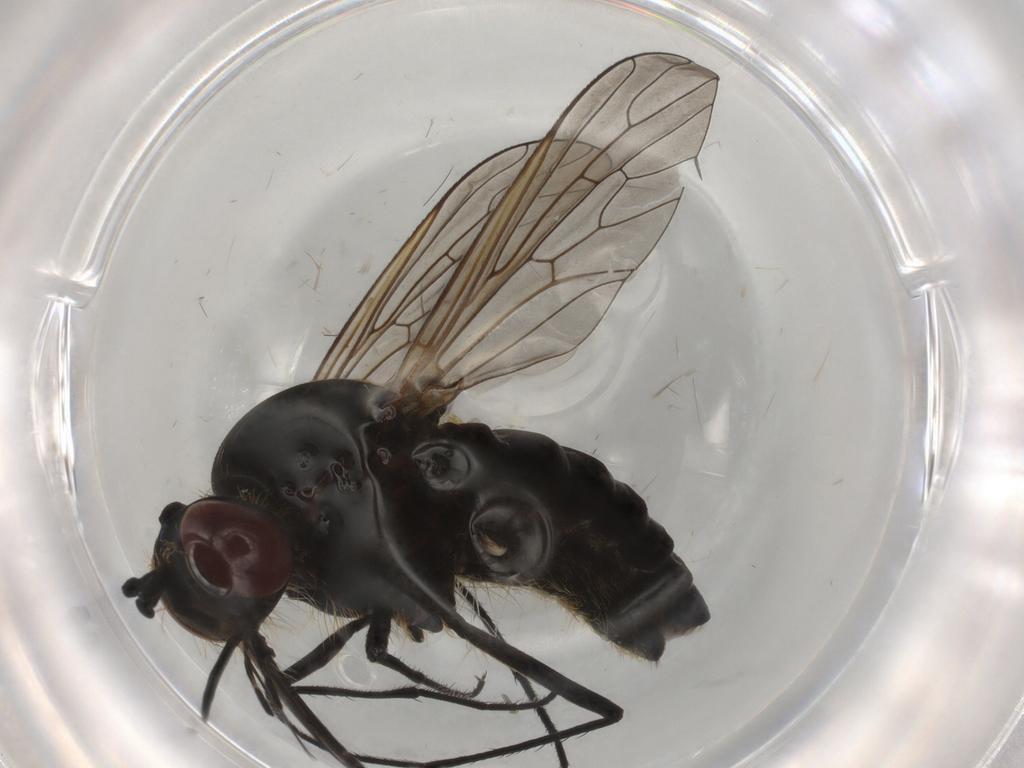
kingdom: Animalia
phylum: Arthropoda
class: Insecta
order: Diptera
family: Bombyliidae
